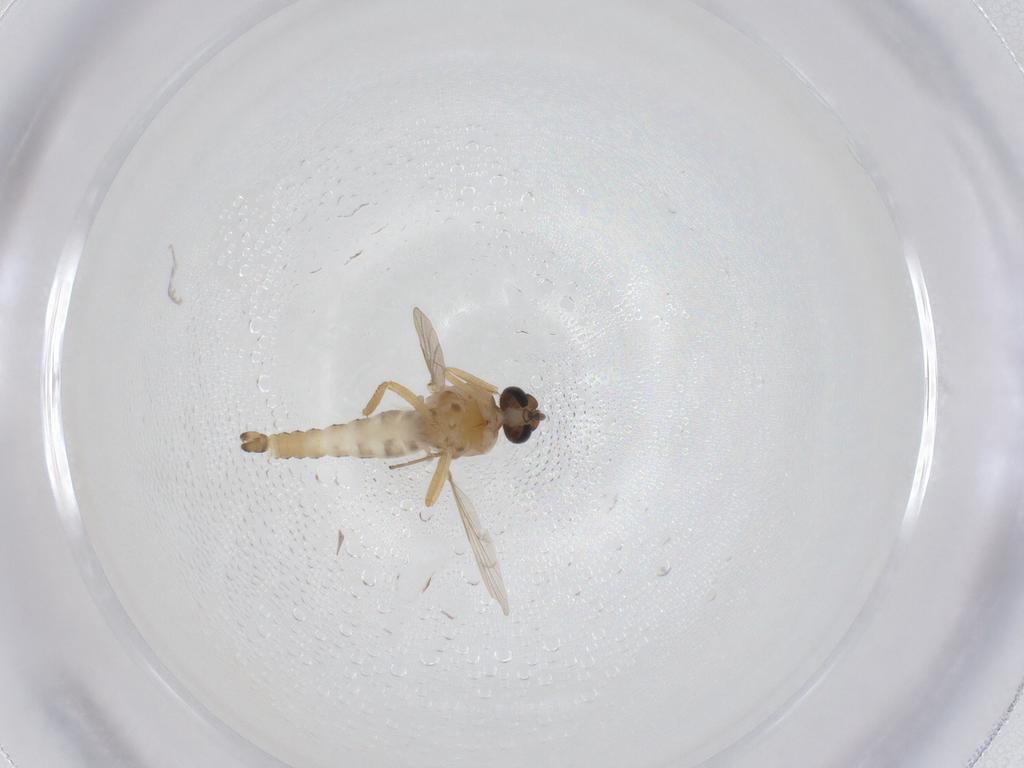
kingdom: Animalia
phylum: Arthropoda
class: Insecta
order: Diptera
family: Ceratopogonidae
